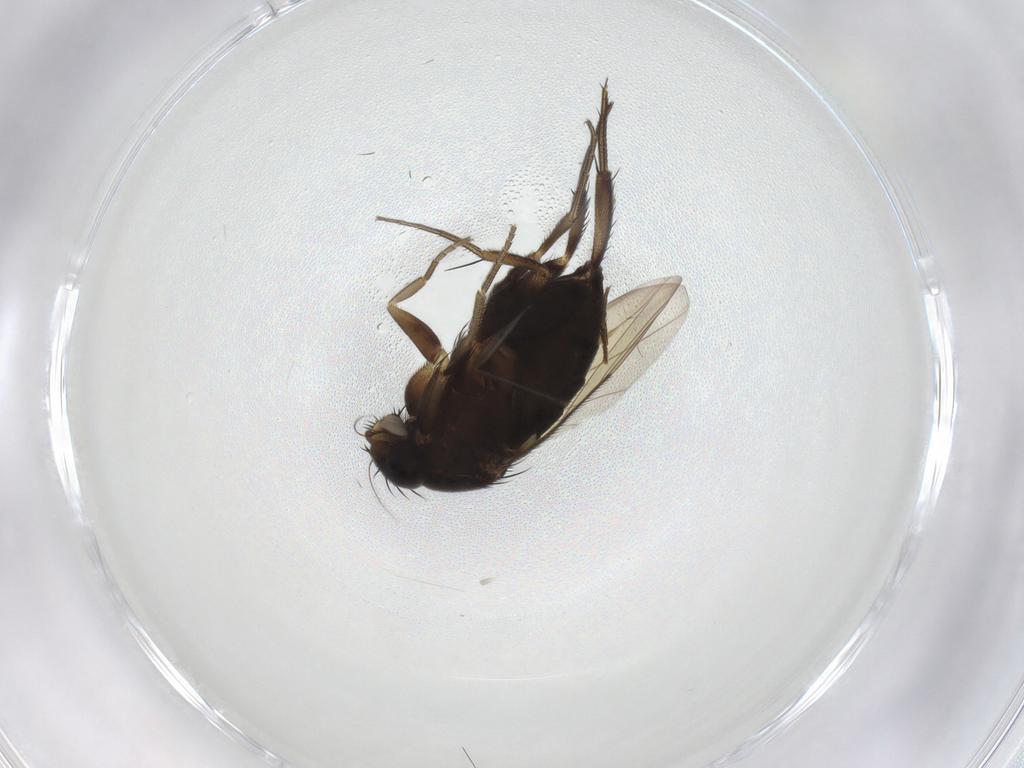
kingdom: Animalia
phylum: Arthropoda
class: Insecta
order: Diptera
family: Phoridae
